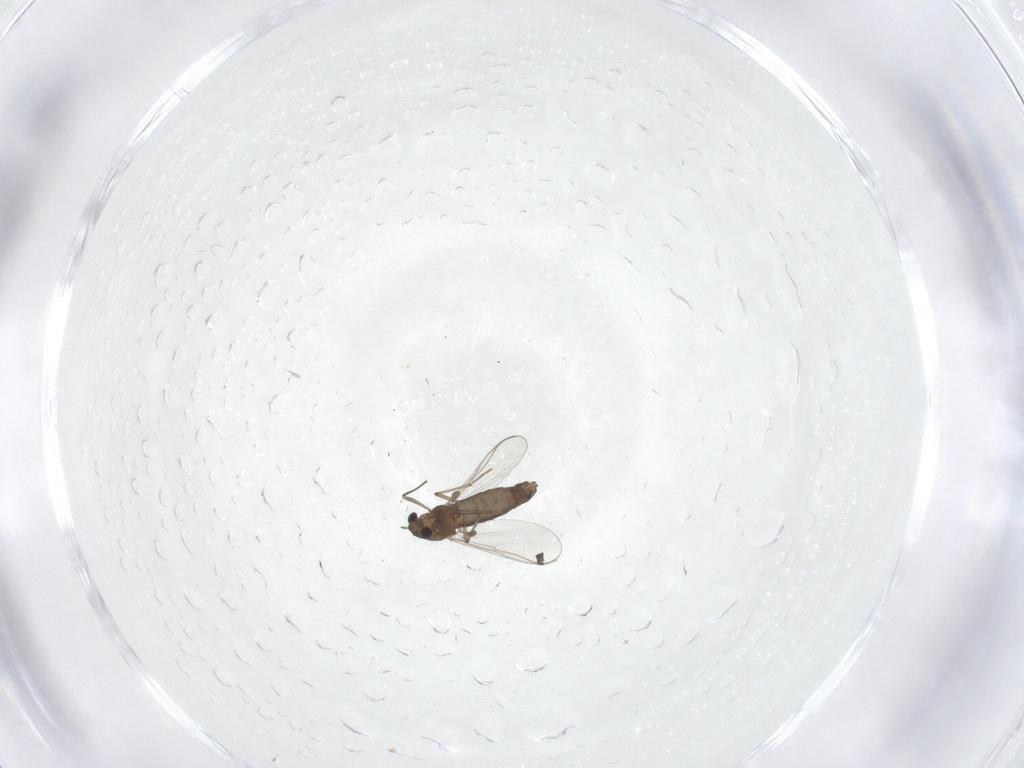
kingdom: Animalia
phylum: Arthropoda
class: Insecta
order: Diptera
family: Chironomidae
